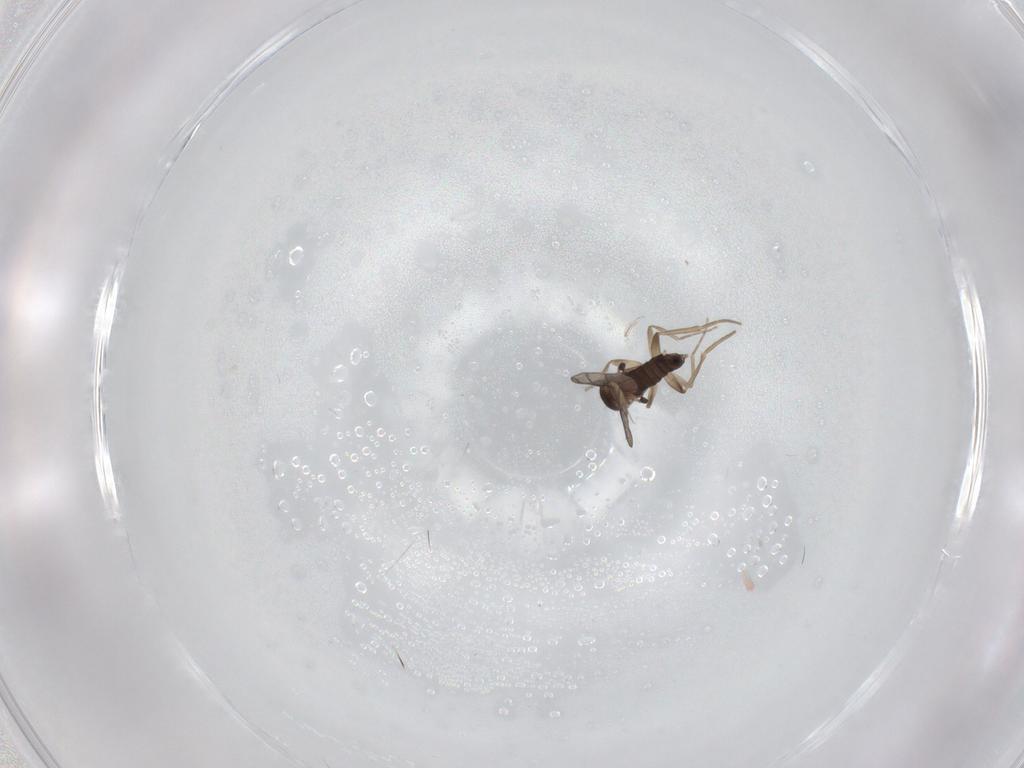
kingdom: Animalia
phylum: Arthropoda
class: Insecta
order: Diptera
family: Phoridae
